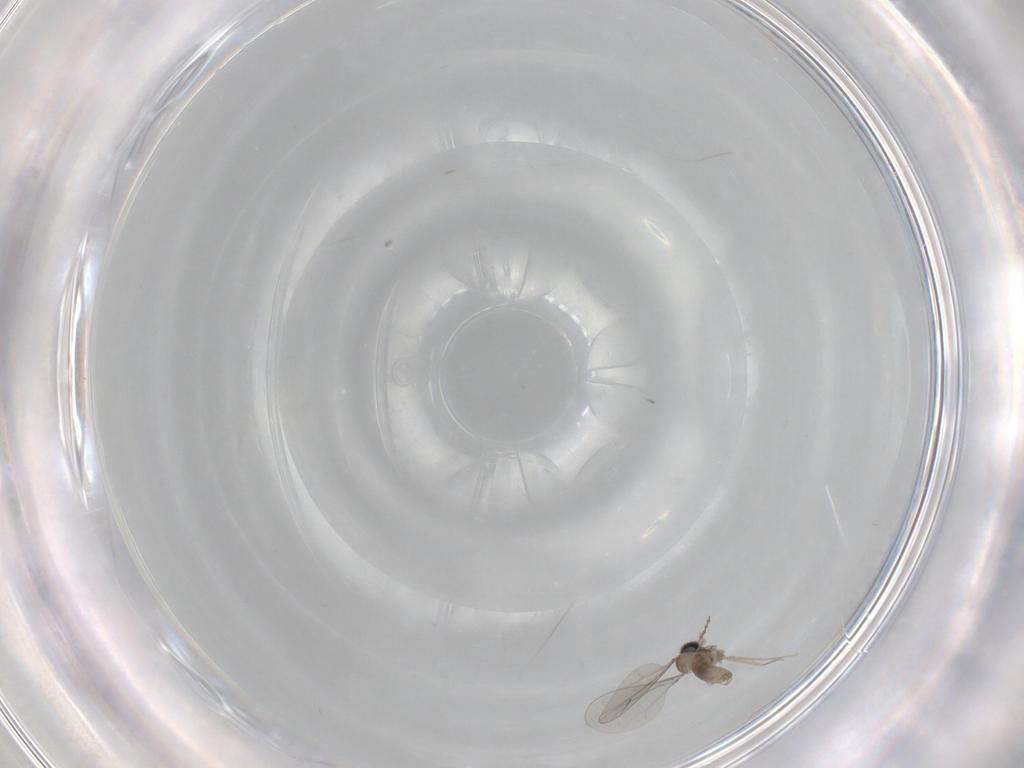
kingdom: Animalia
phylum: Arthropoda
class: Insecta
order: Diptera
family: Cecidomyiidae
